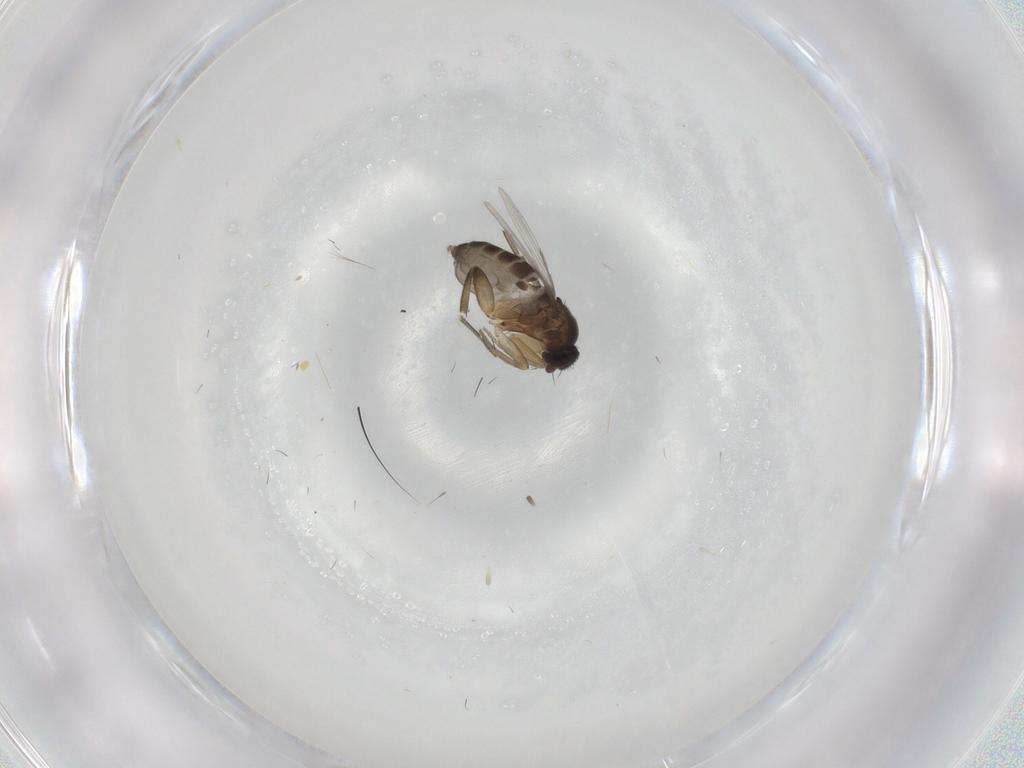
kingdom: Animalia
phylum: Arthropoda
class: Insecta
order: Diptera
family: Phoridae
